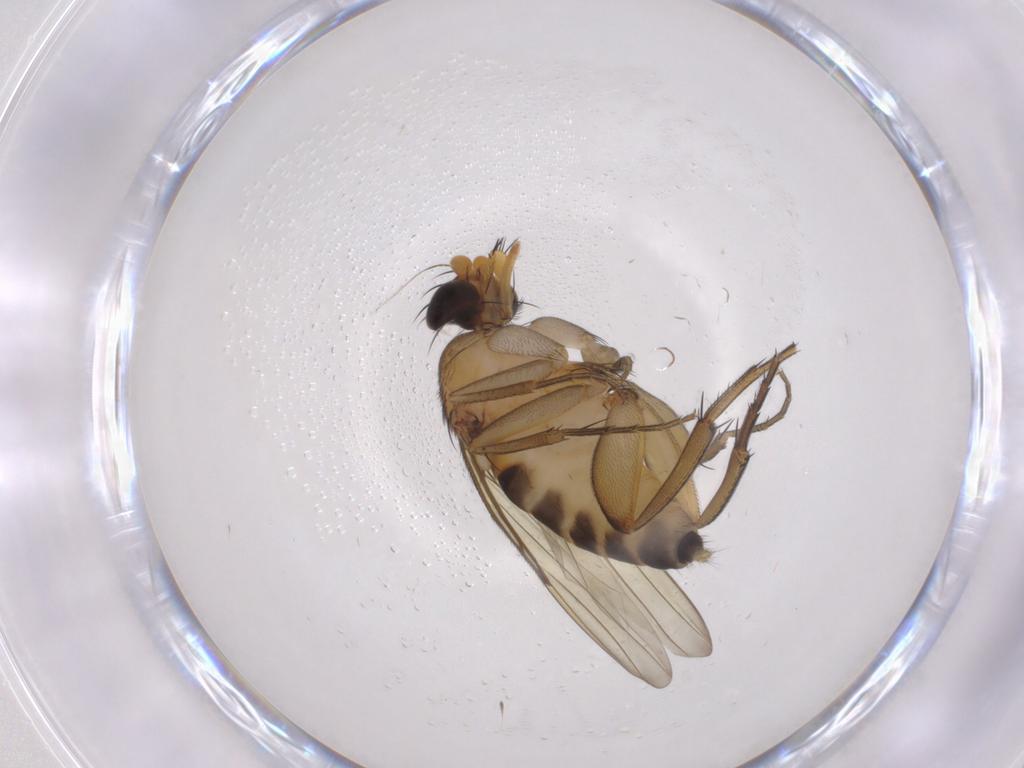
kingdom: Animalia
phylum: Arthropoda
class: Insecta
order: Diptera
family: Phoridae
